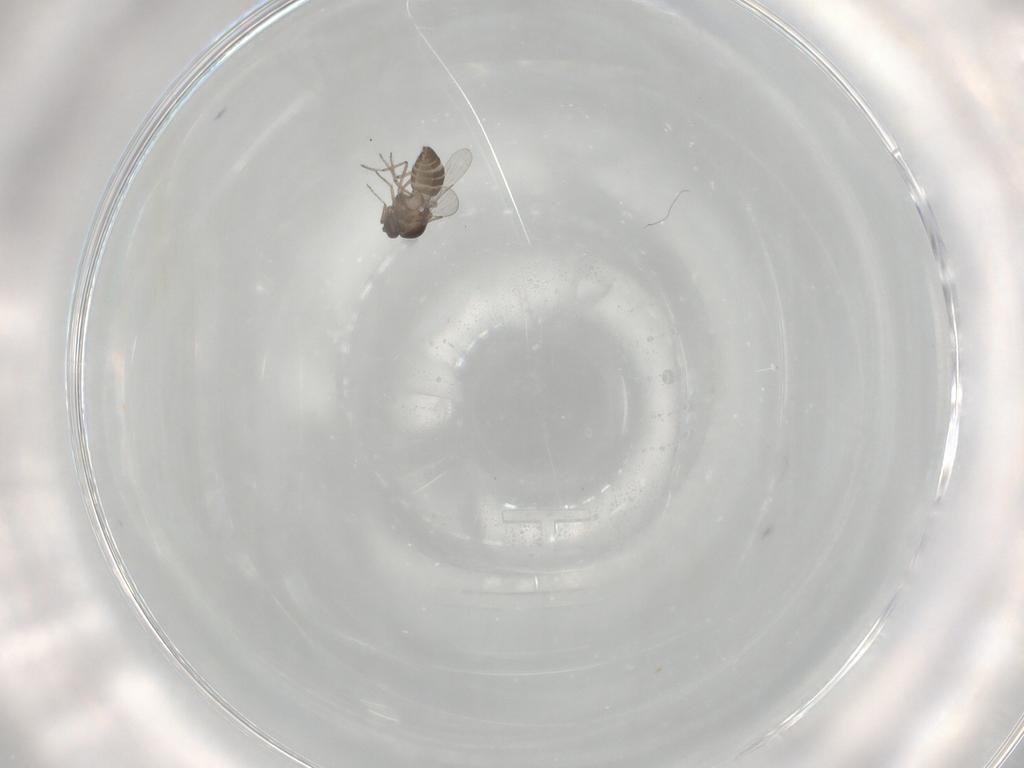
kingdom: Animalia
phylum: Arthropoda
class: Insecta
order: Diptera
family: Ceratopogonidae
